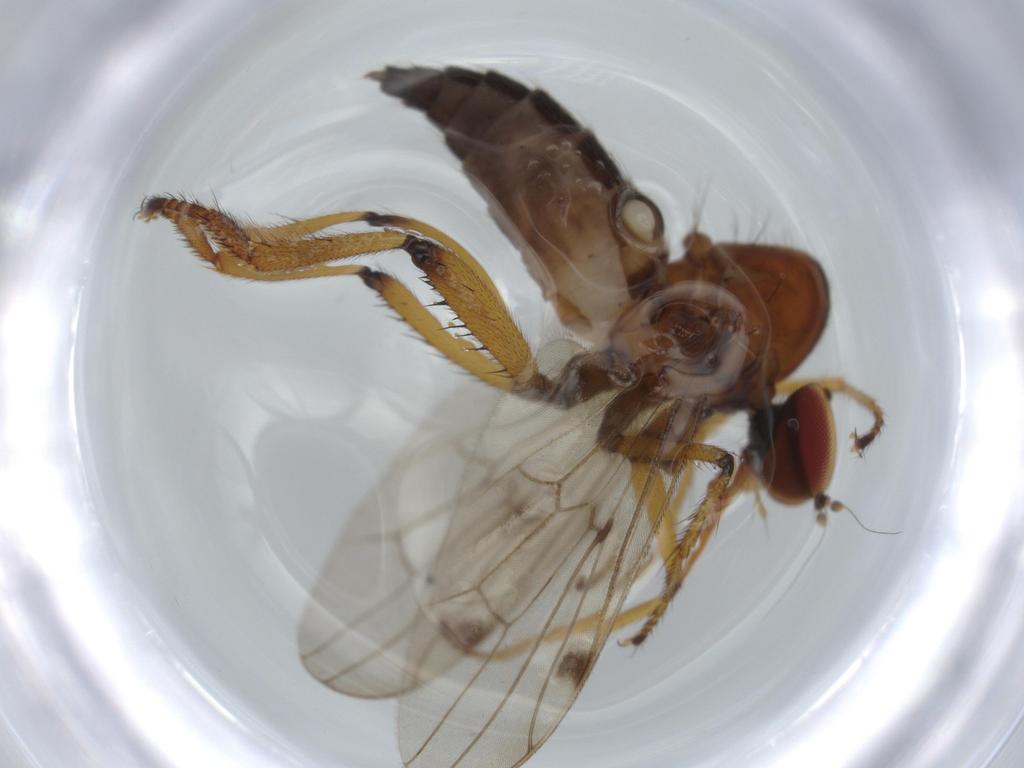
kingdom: Animalia
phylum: Arthropoda
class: Insecta
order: Diptera
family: Hybotidae
